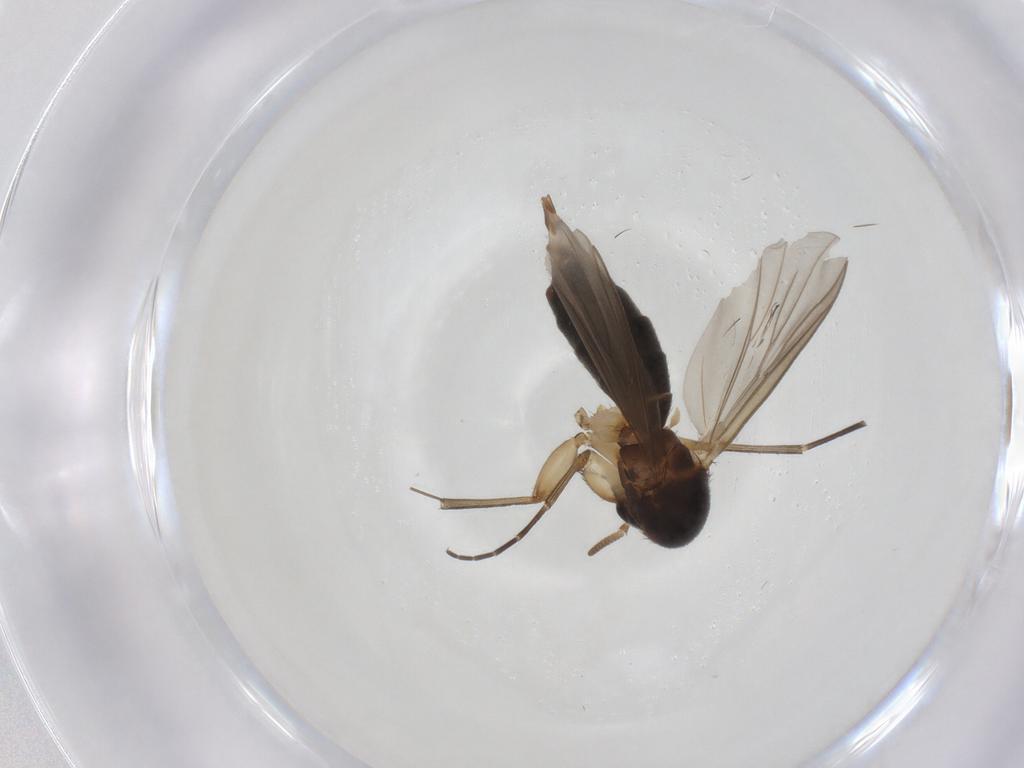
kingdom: Animalia
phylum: Arthropoda
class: Insecta
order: Diptera
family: Mycetophilidae
